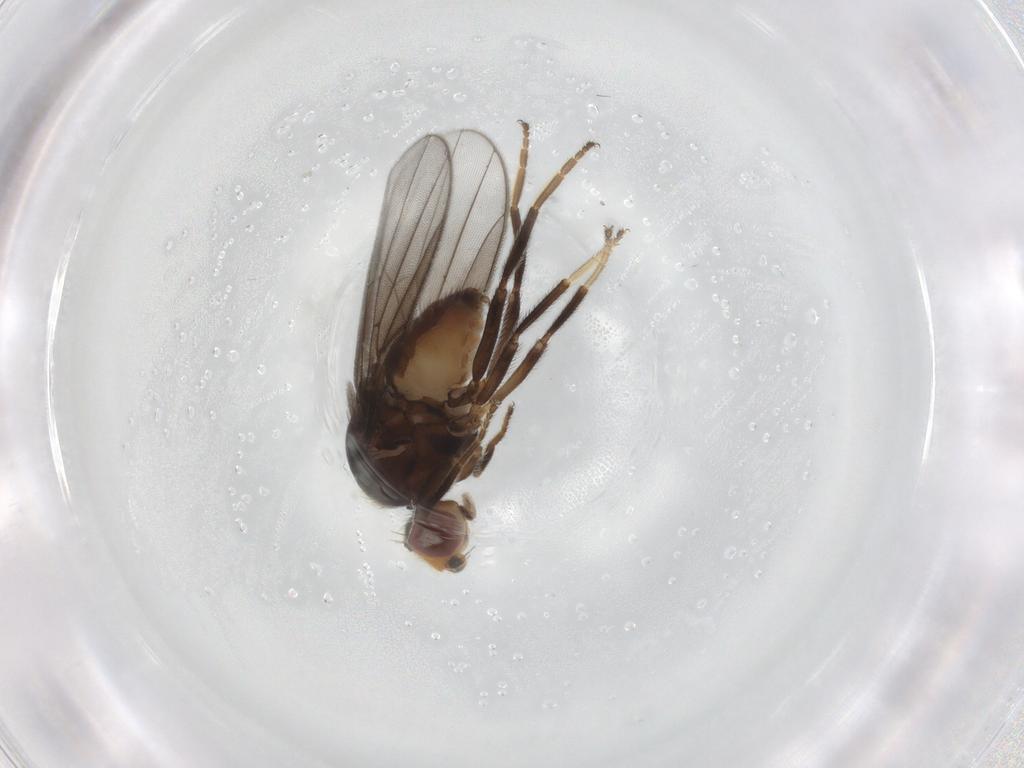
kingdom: Animalia
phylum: Arthropoda
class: Insecta
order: Diptera
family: Chloropidae
